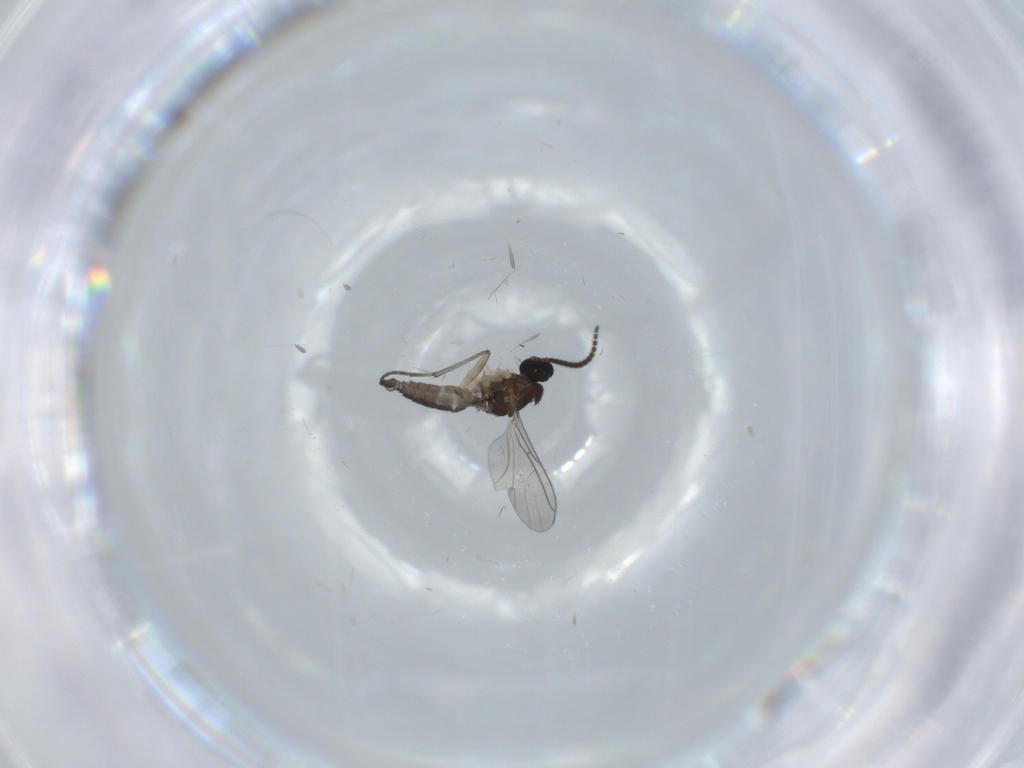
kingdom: Animalia
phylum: Arthropoda
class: Insecta
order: Diptera
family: Sciaridae
